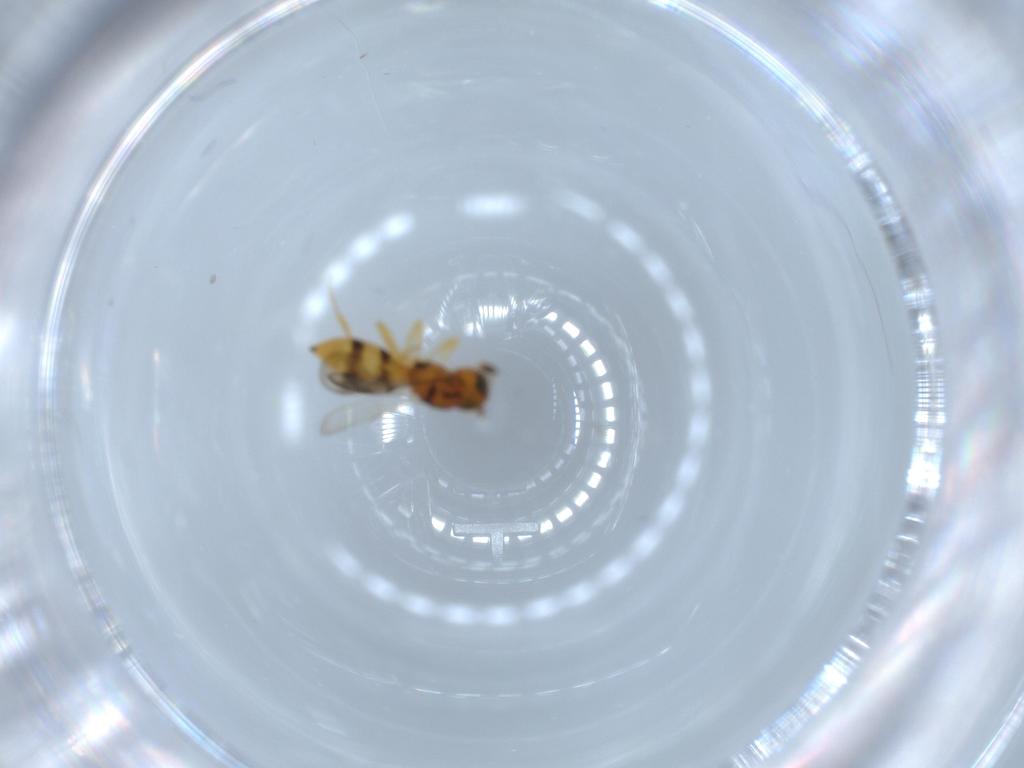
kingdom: Animalia
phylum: Arthropoda
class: Insecta
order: Hymenoptera
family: Scelionidae
